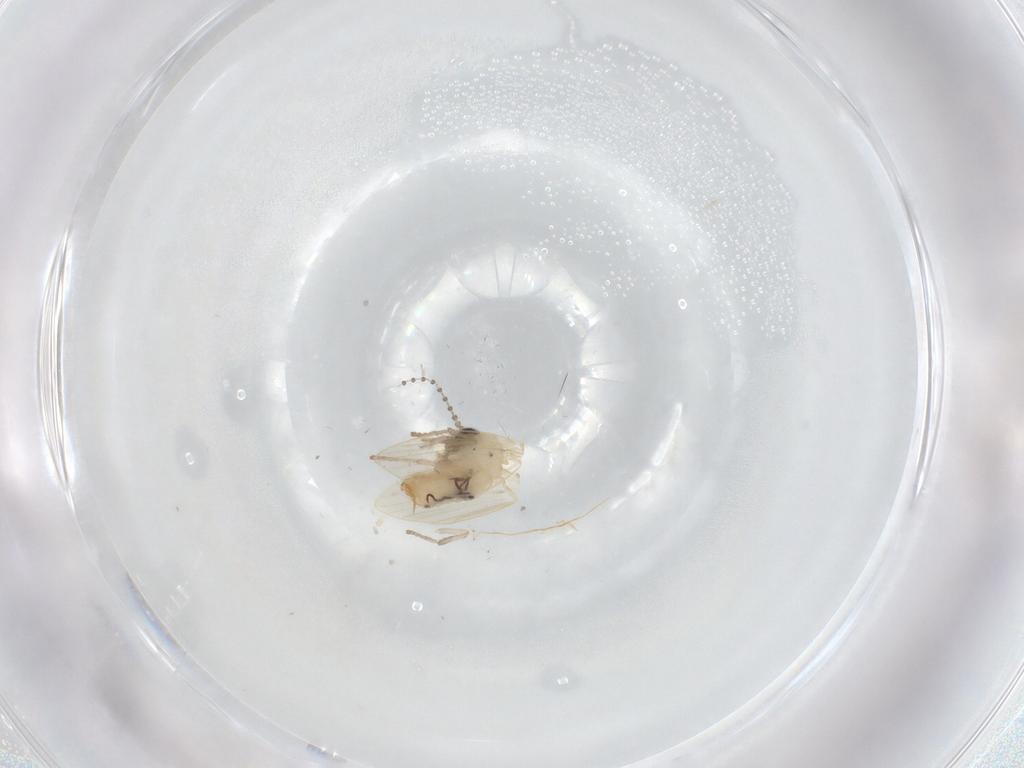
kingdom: Animalia
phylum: Arthropoda
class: Insecta
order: Diptera
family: Psychodidae
